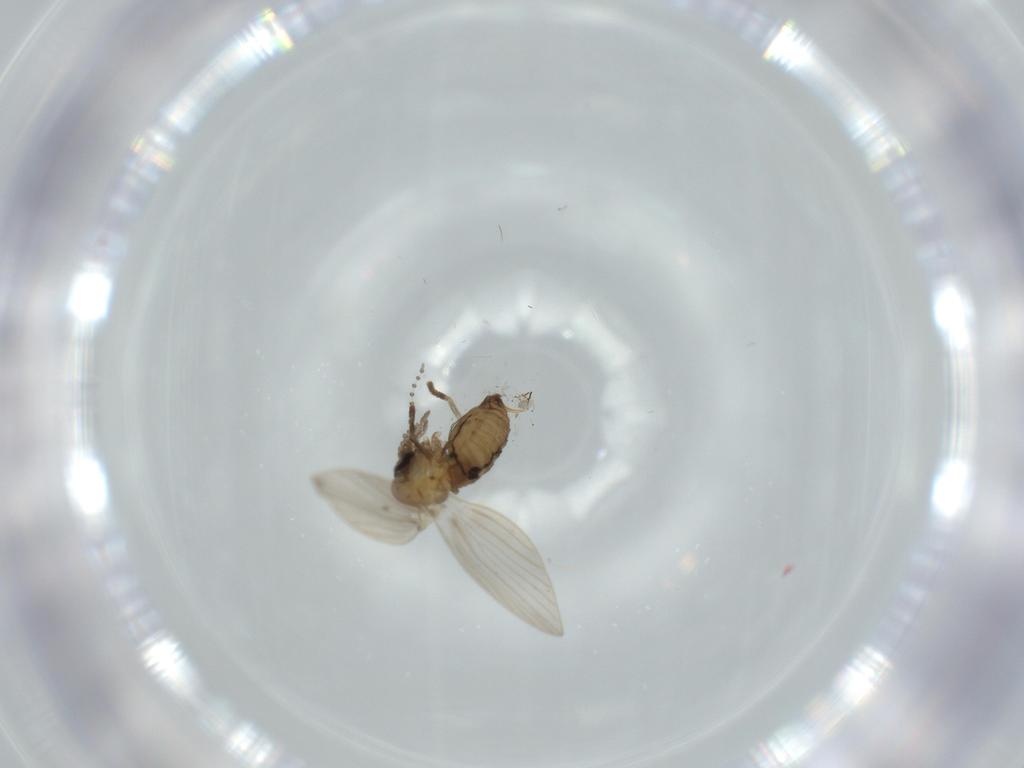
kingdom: Animalia
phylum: Arthropoda
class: Insecta
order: Diptera
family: Psychodidae
